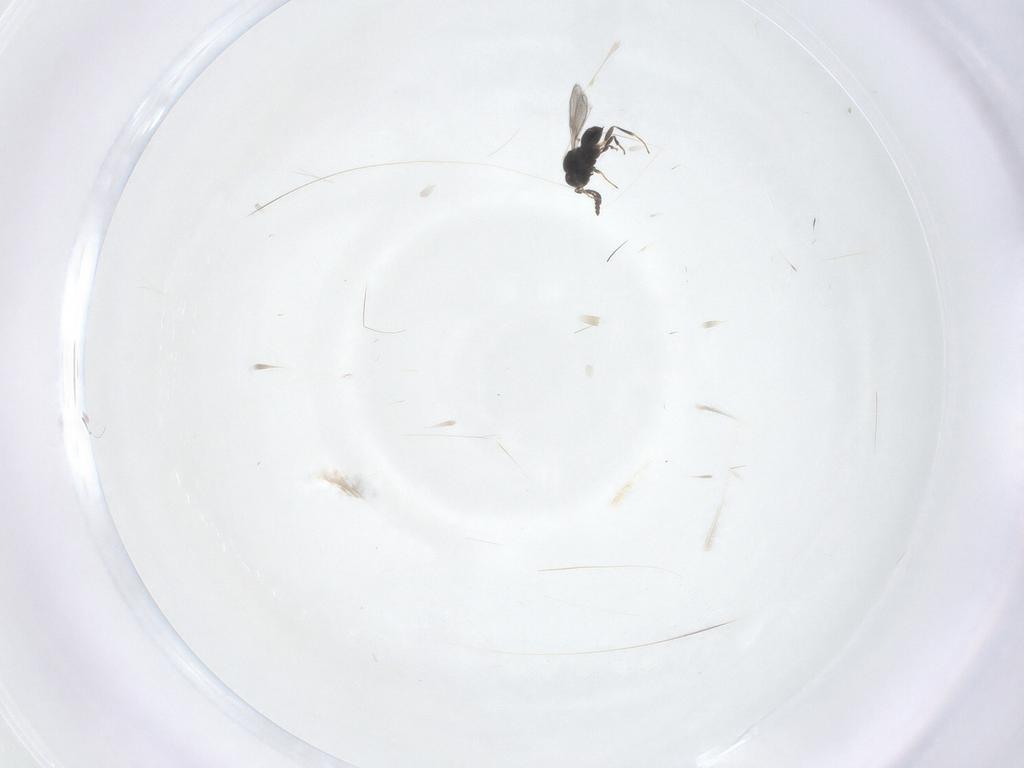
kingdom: Animalia
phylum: Arthropoda
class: Insecta
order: Hymenoptera
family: Scelionidae
